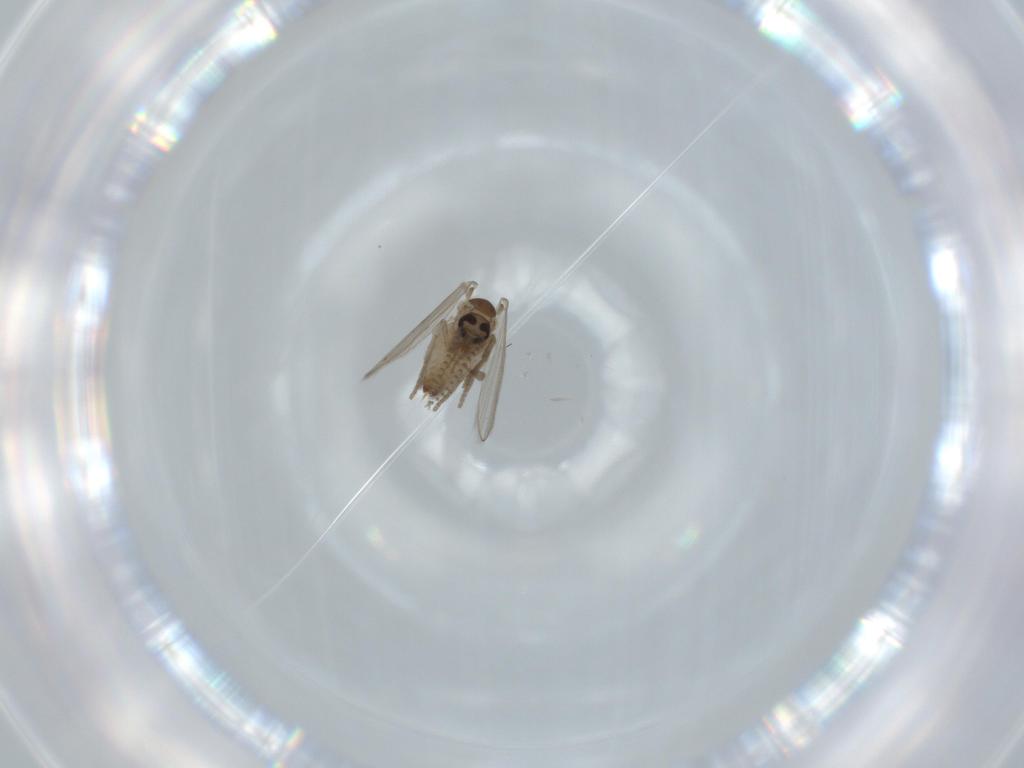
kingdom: Animalia
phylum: Arthropoda
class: Insecta
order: Diptera
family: Psychodidae
